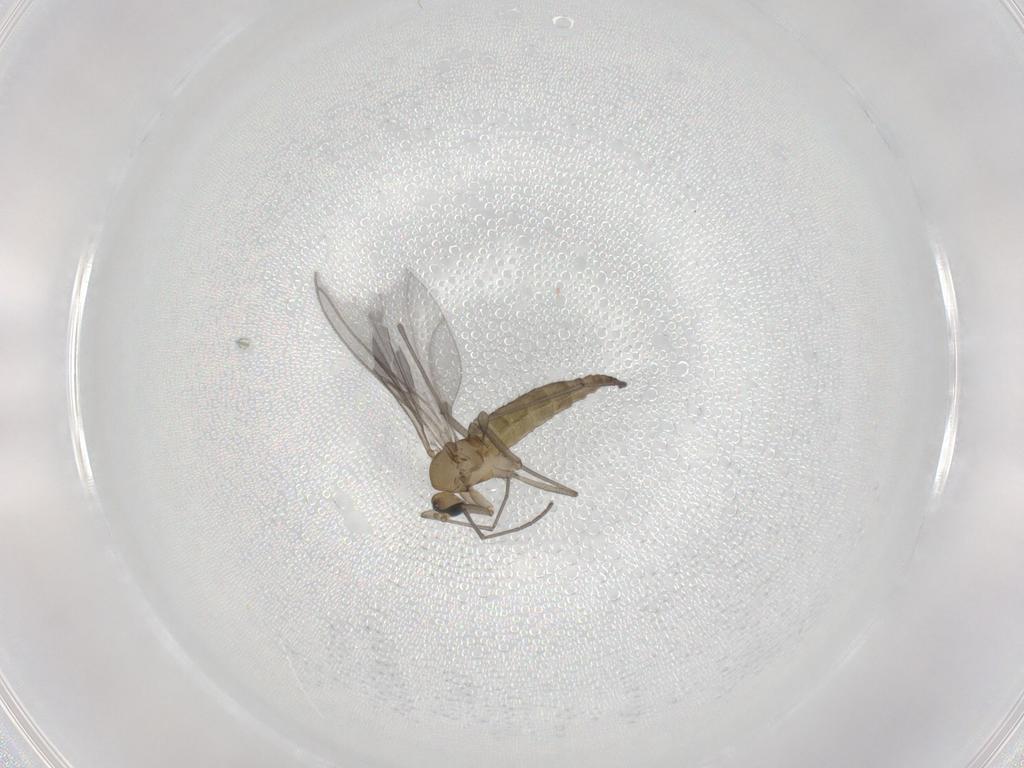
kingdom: Animalia
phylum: Arthropoda
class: Insecta
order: Diptera
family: Sciaridae
